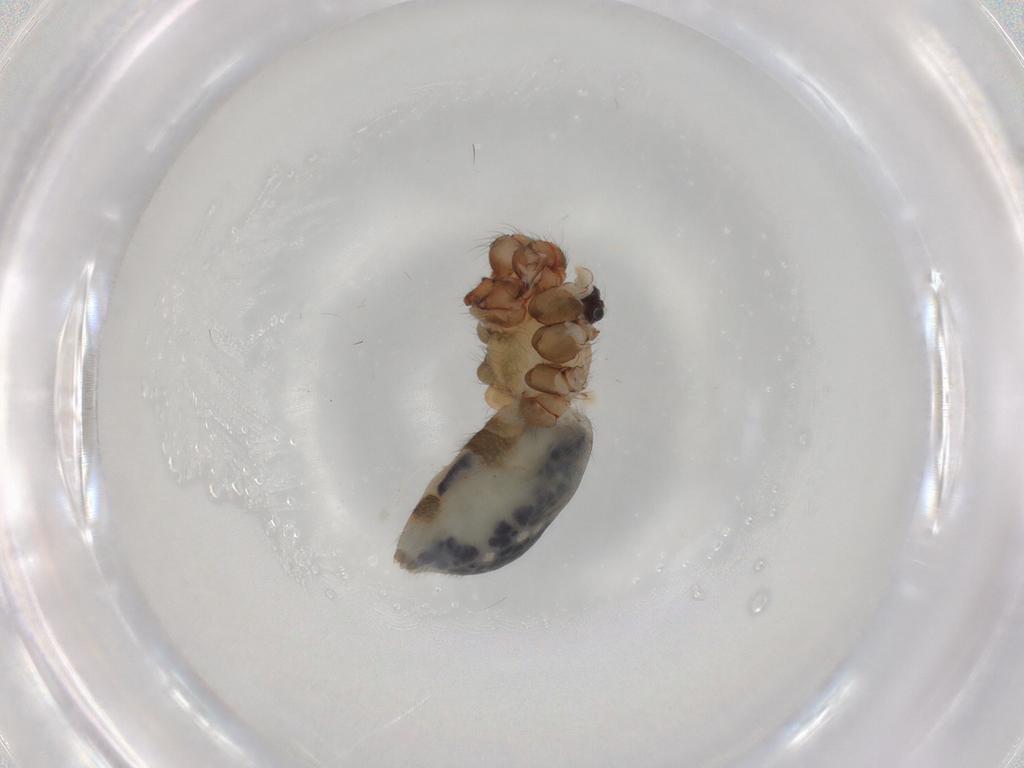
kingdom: Animalia
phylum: Arthropoda
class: Arachnida
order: Araneae
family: Pholcidae
